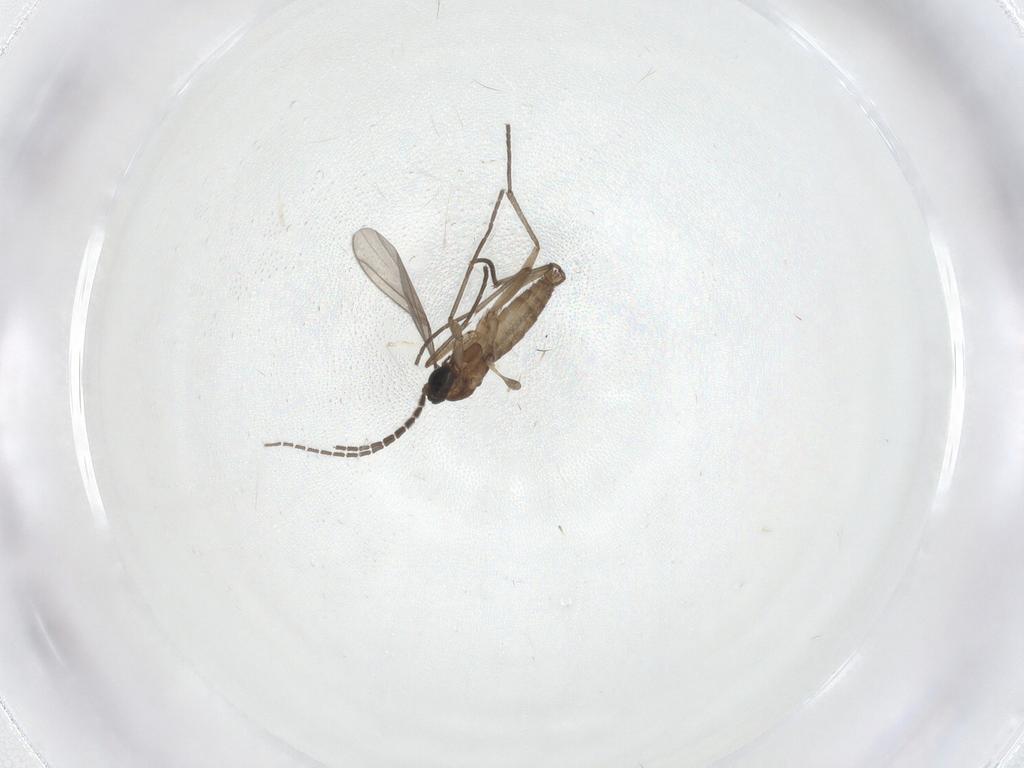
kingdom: Animalia
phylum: Arthropoda
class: Insecta
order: Diptera
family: Sciaridae
